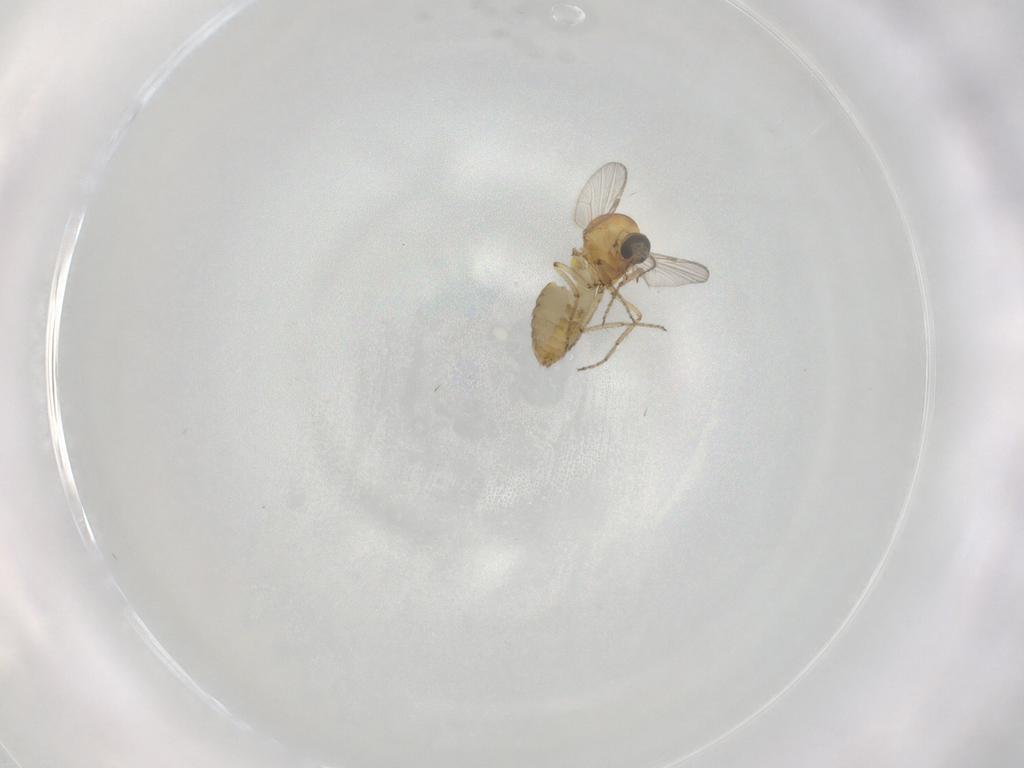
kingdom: Animalia
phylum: Arthropoda
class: Insecta
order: Diptera
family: Ceratopogonidae
